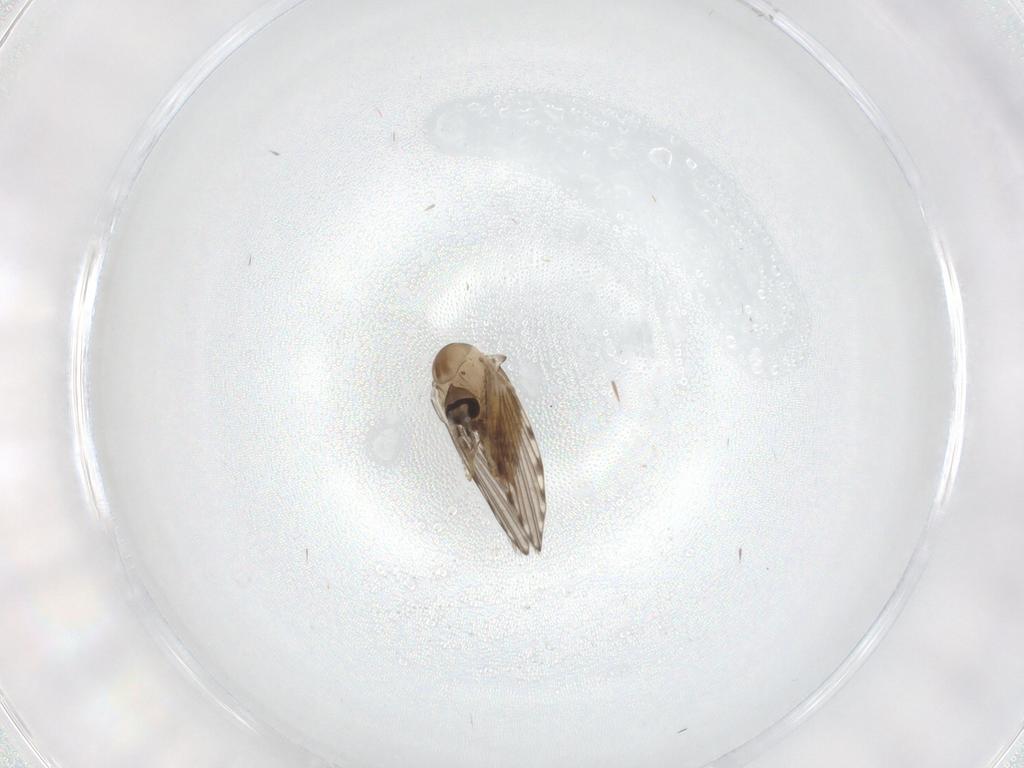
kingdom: Animalia
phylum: Arthropoda
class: Insecta
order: Diptera
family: Psychodidae
